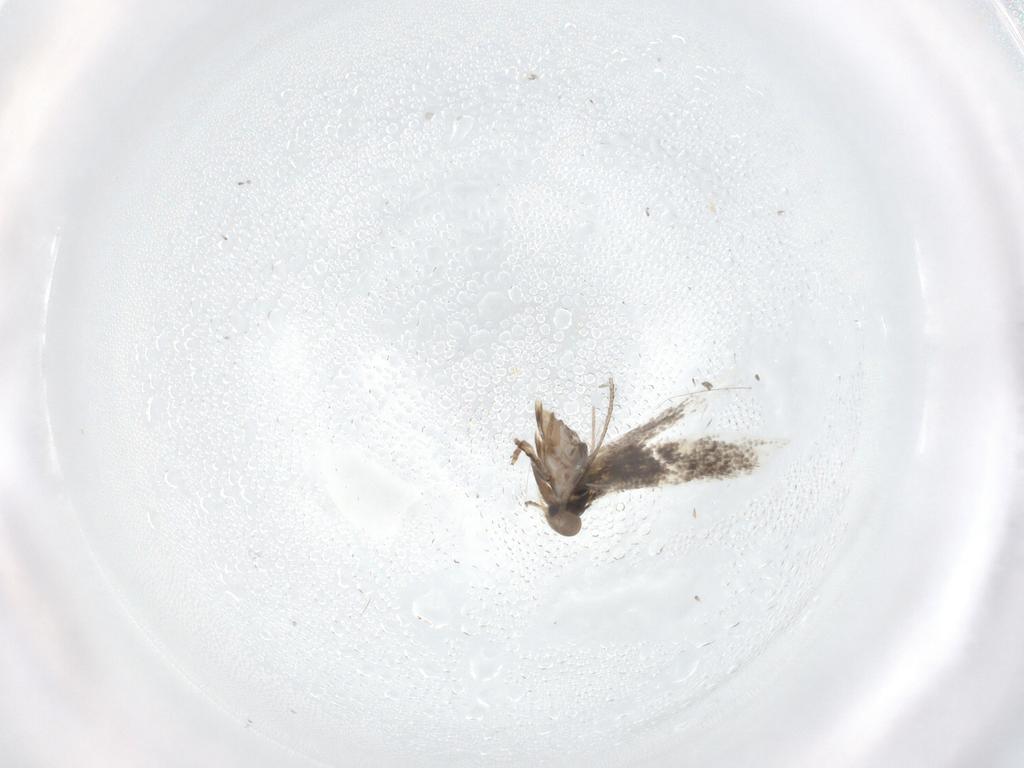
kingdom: Animalia
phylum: Arthropoda
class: Insecta
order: Lepidoptera
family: Elachistidae
